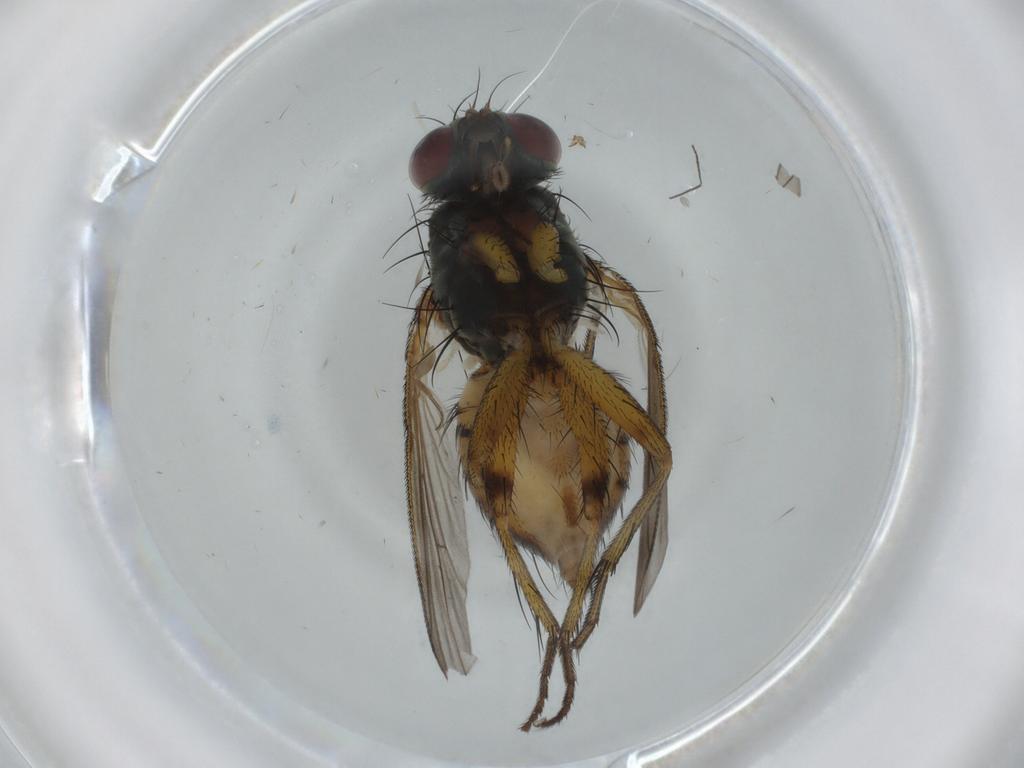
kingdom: Animalia
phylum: Arthropoda
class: Insecta
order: Diptera
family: Muscidae
